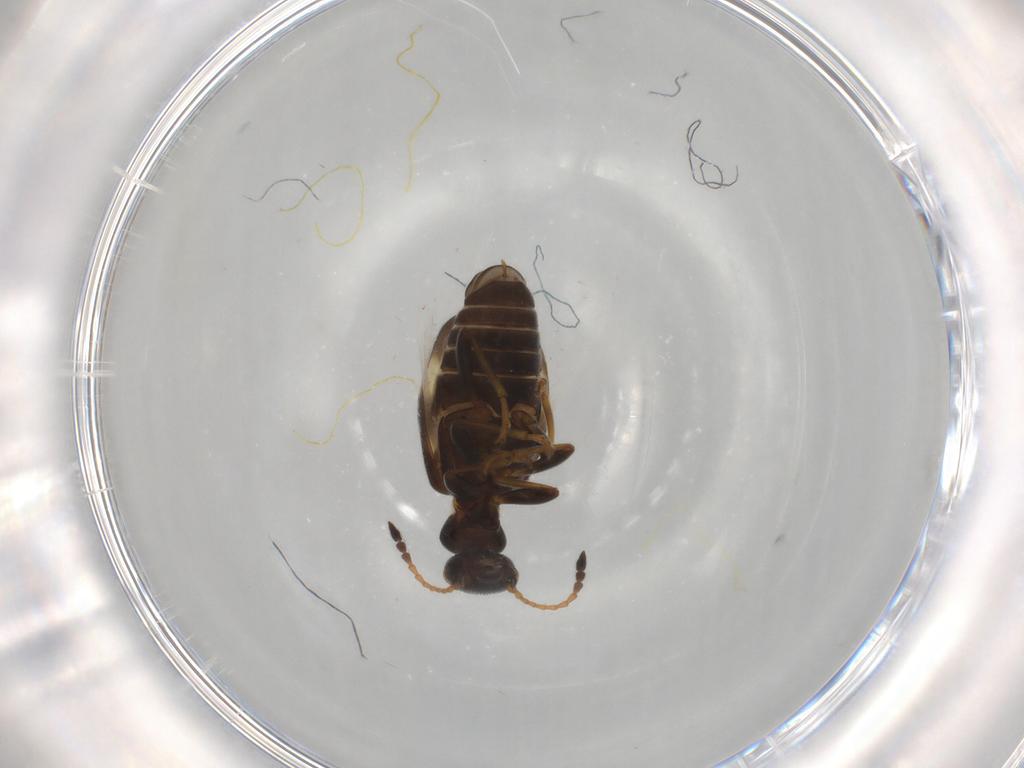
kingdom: Animalia
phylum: Arthropoda
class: Insecta
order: Coleoptera
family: Anthicidae
